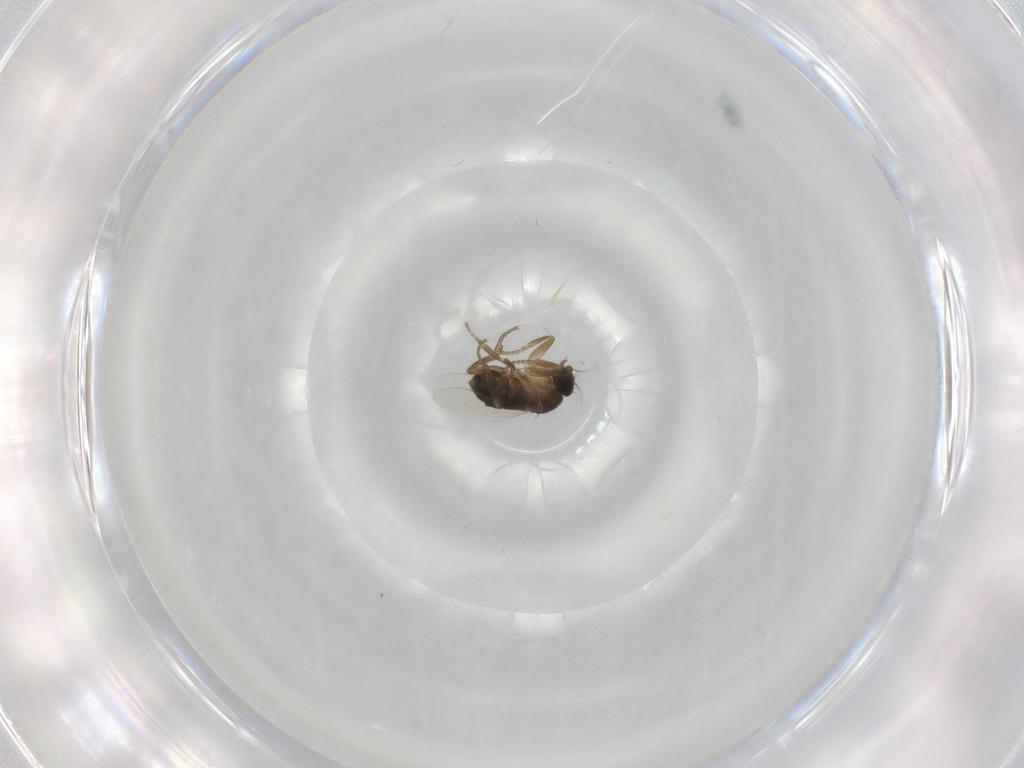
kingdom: Animalia
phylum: Arthropoda
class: Insecta
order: Diptera
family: Phoridae
